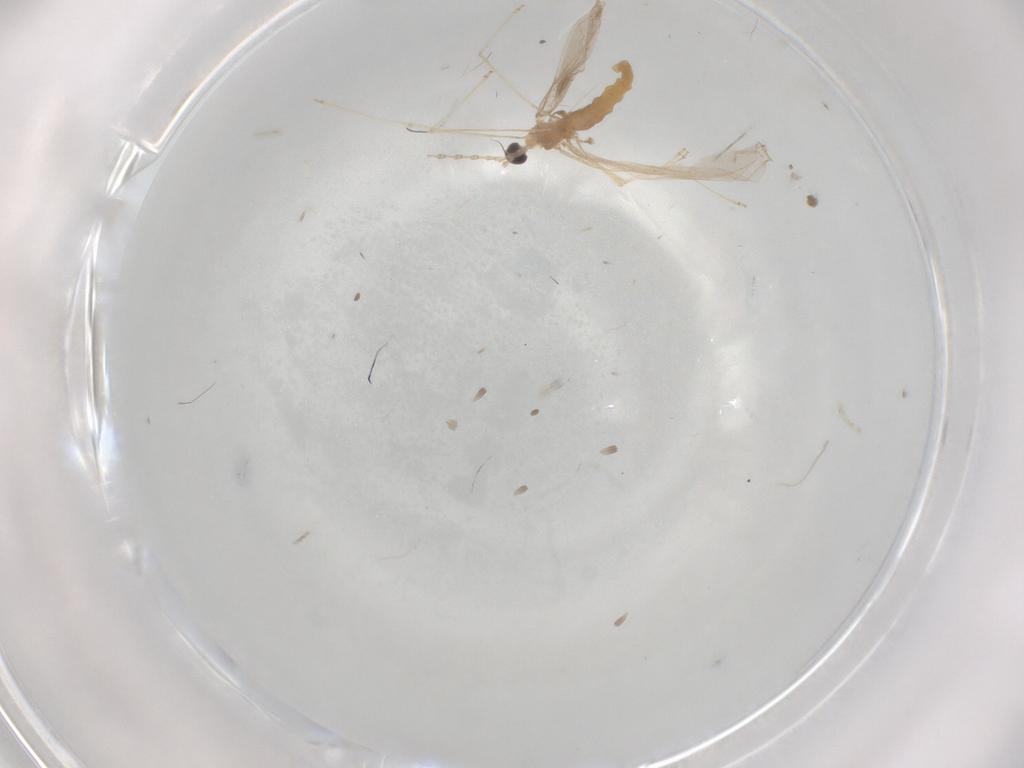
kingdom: Animalia
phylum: Arthropoda
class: Insecta
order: Diptera
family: Cecidomyiidae
